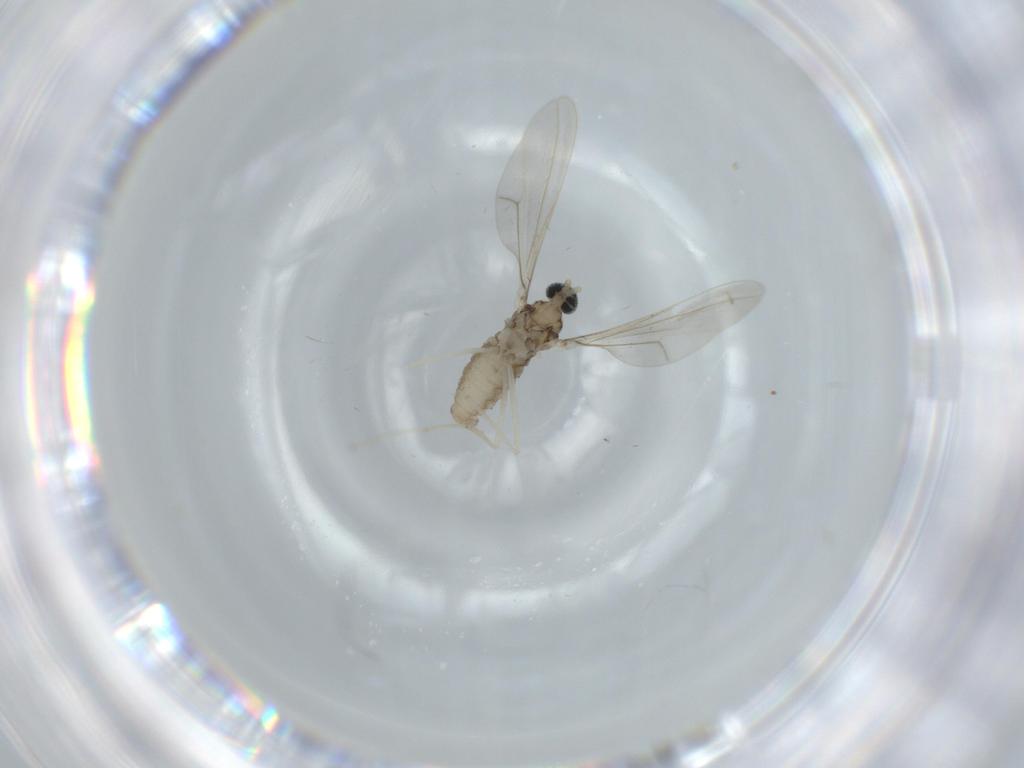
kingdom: Animalia
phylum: Arthropoda
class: Insecta
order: Diptera
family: Cecidomyiidae
